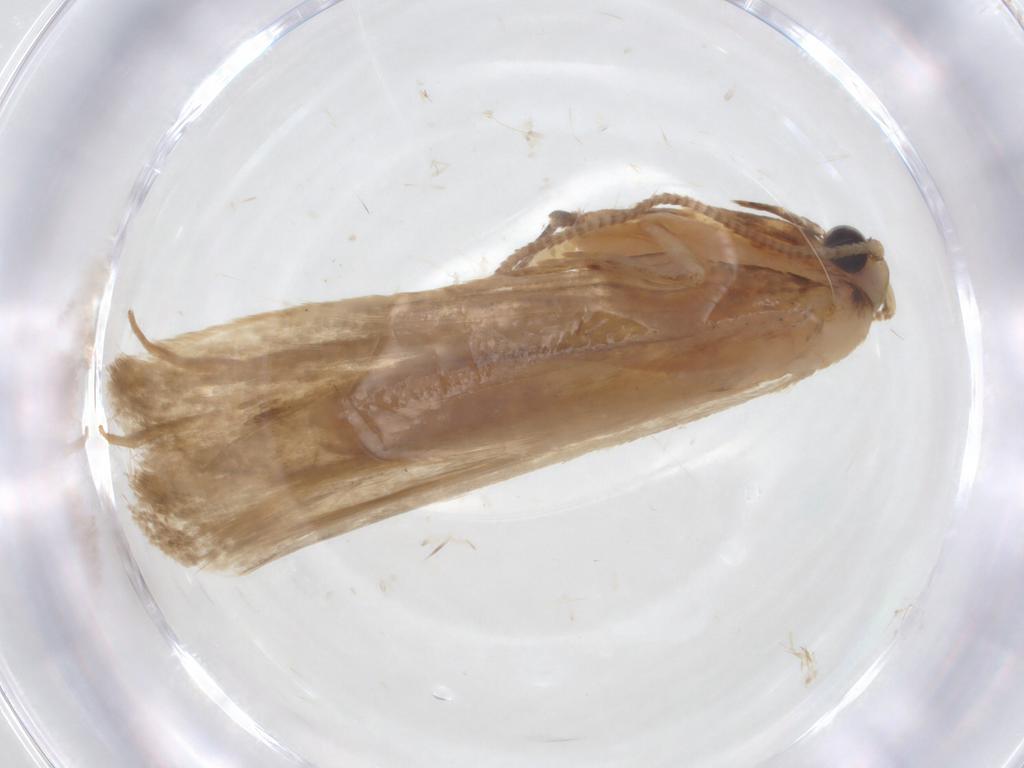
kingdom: Animalia
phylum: Arthropoda
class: Insecta
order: Lepidoptera
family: Tineidae
